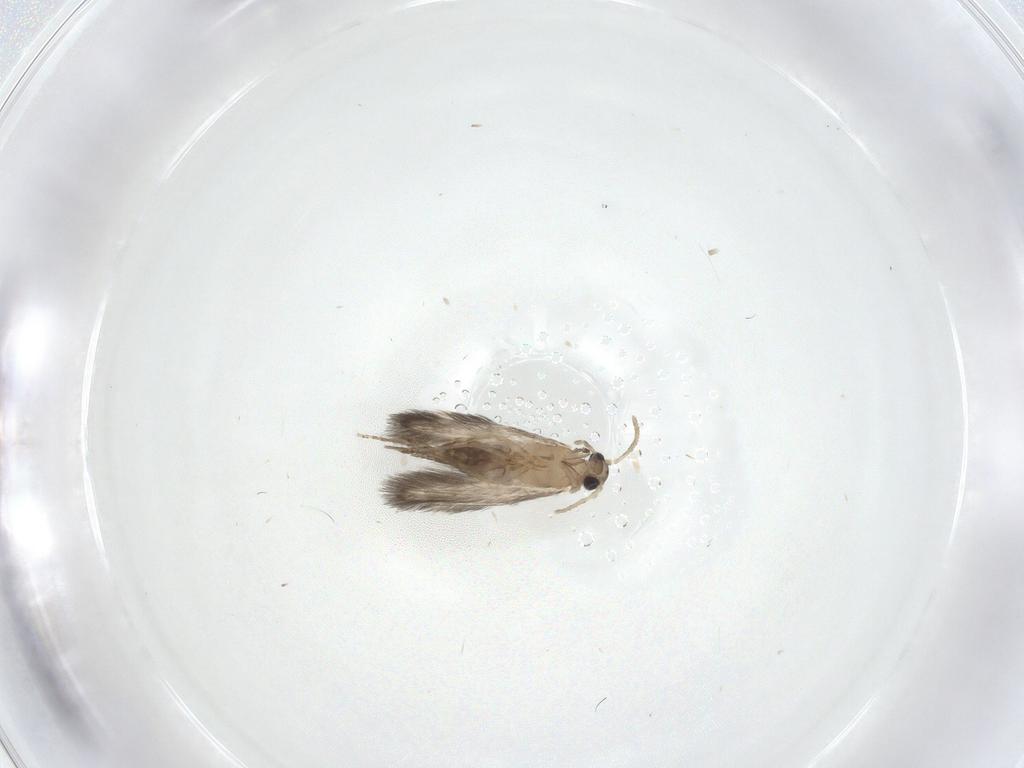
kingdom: Animalia
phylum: Arthropoda
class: Insecta
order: Trichoptera
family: Hydroptilidae
